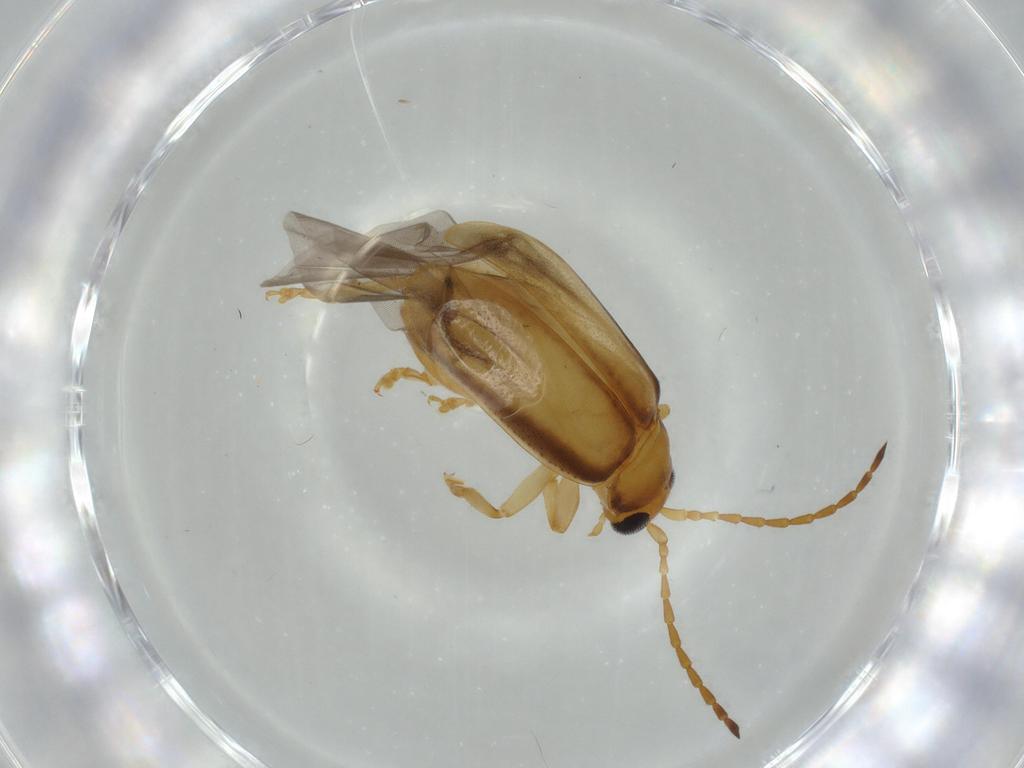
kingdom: Animalia
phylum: Arthropoda
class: Insecta
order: Coleoptera
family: Chrysomelidae
